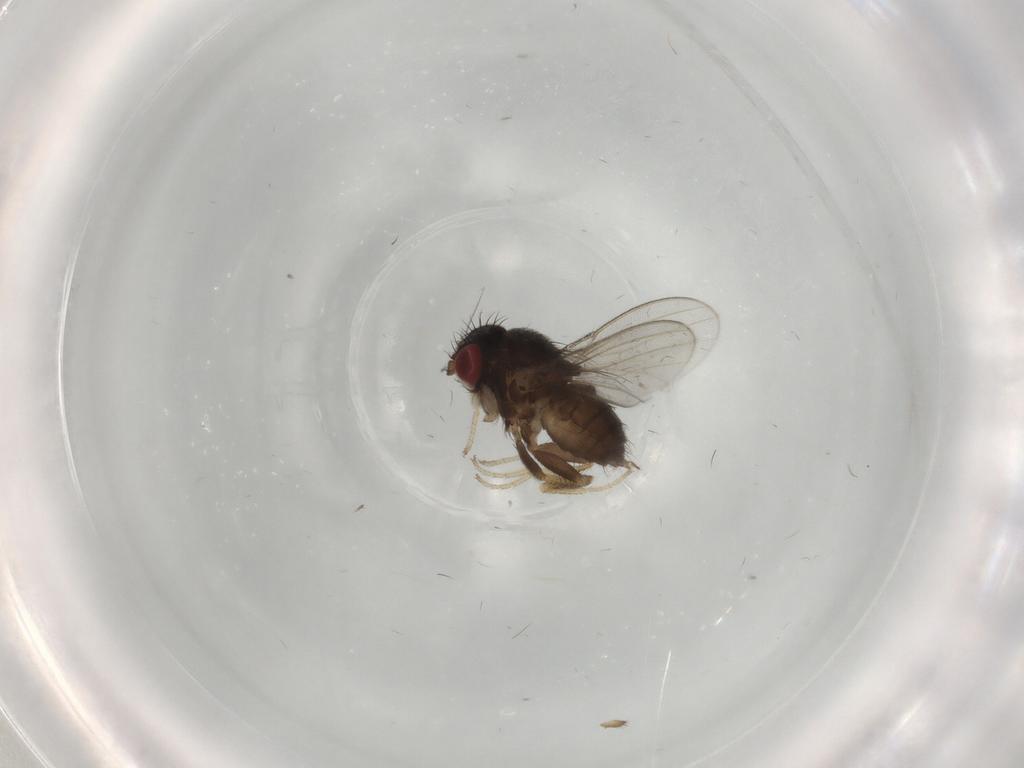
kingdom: Animalia
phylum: Arthropoda
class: Insecta
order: Diptera
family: Milichiidae
